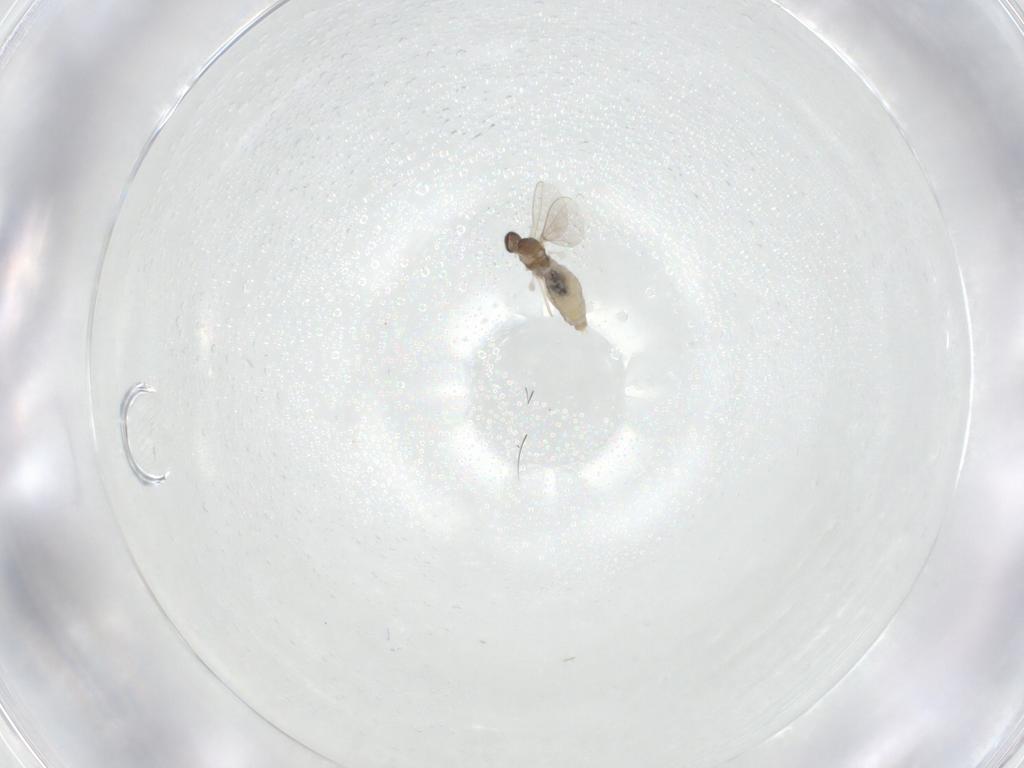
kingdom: Animalia
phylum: Arthropoda
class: Insecta
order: Diptera
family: Cecidomyiidae
